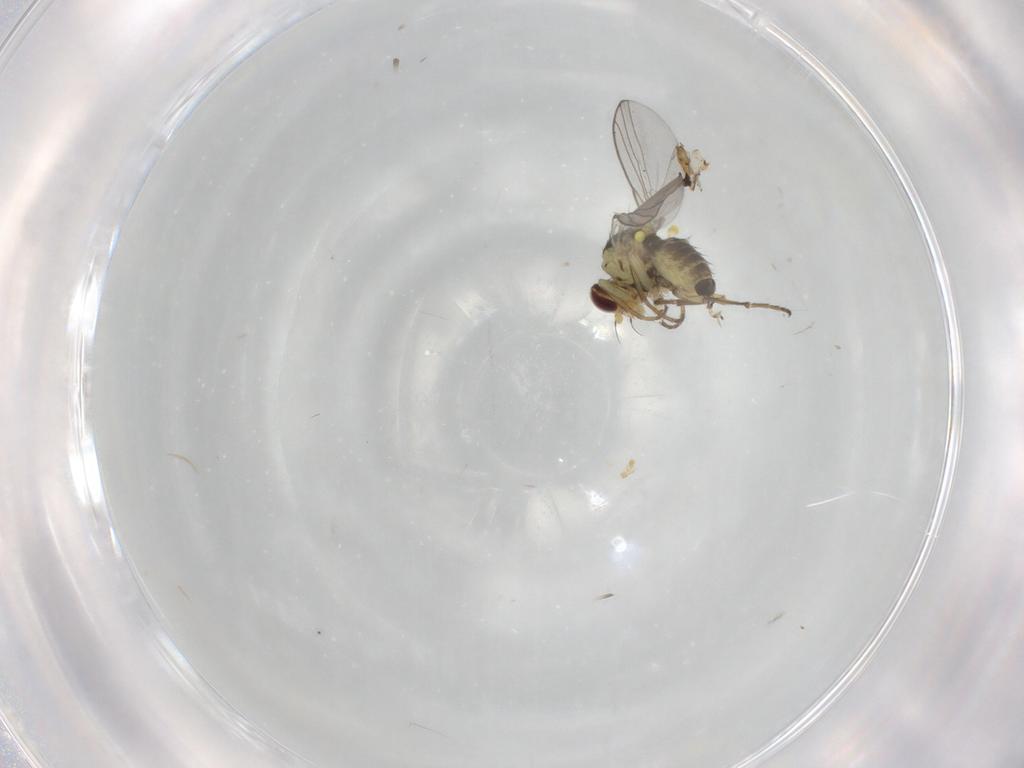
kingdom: Animalia
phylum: Arthropoda
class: Insecta
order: Diptera
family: Agromyzidae
